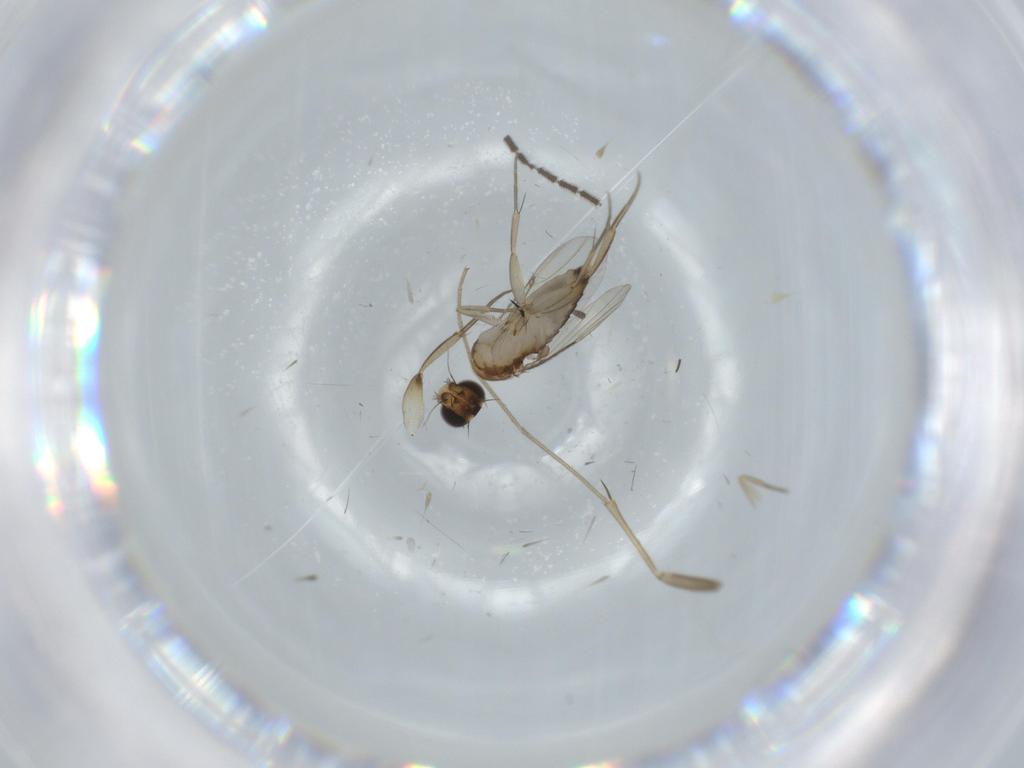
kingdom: Animalia
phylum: Arthropoda
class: Insecta
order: Diptera
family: Phoridae
